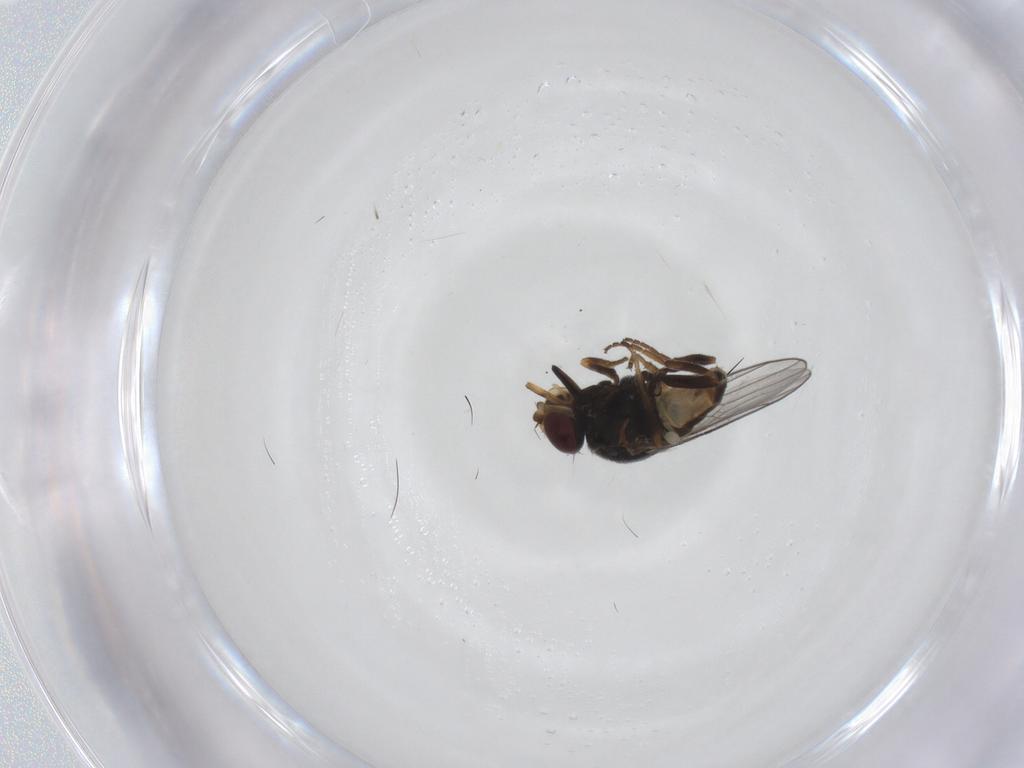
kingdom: Animalia
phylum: Arthropoda
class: Insecta
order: Diptera
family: Chloropidae
